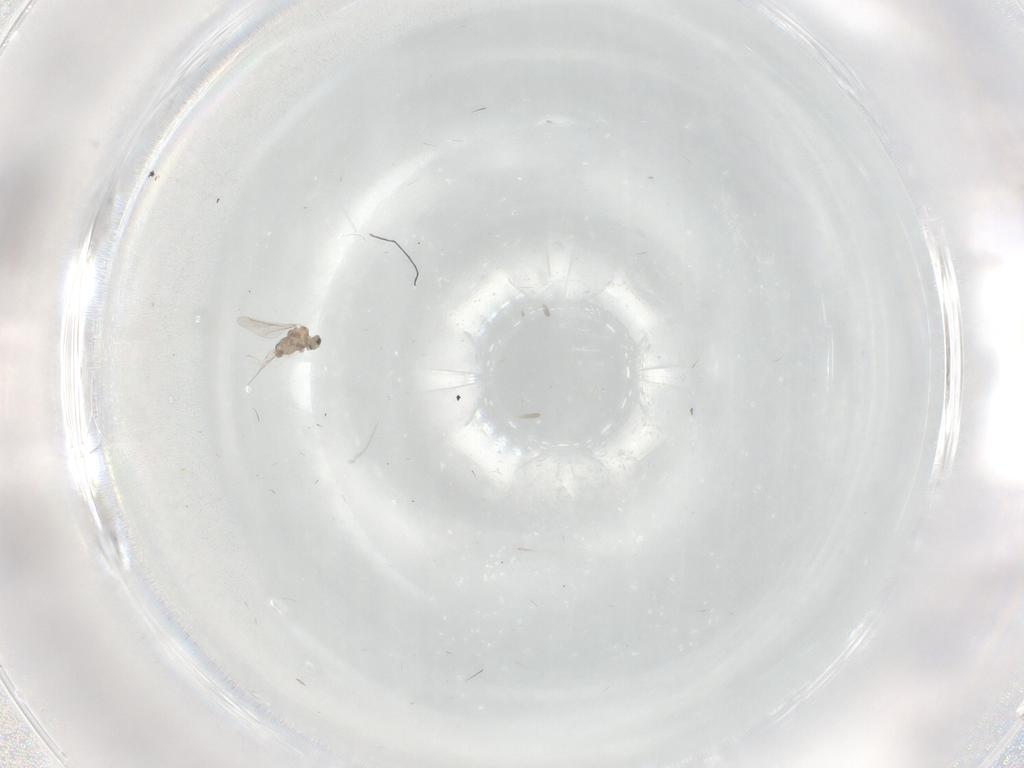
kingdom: Animalia
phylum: Arthropoda
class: Insecta
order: Diptera
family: Cecidomyiidae
